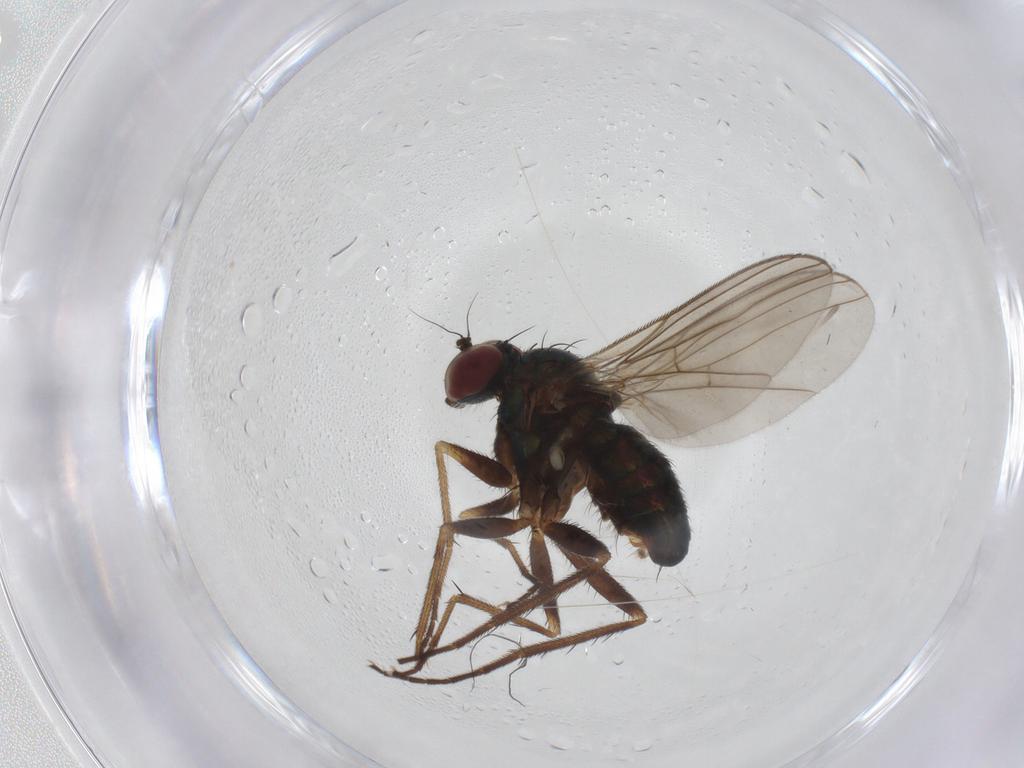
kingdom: Animalia
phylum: Arthropoda
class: Insecta
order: Diptera
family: Dolichopodidae
